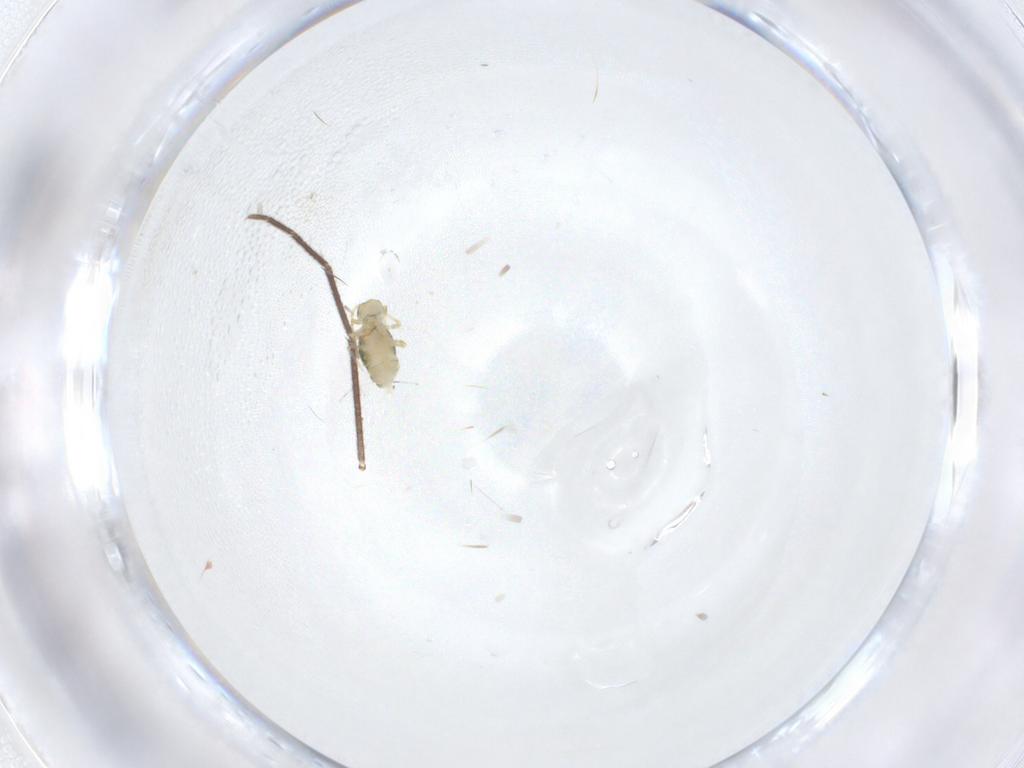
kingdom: Animalia
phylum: Arthropoda
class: Collembola
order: Symphypleona
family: Katiannidae
